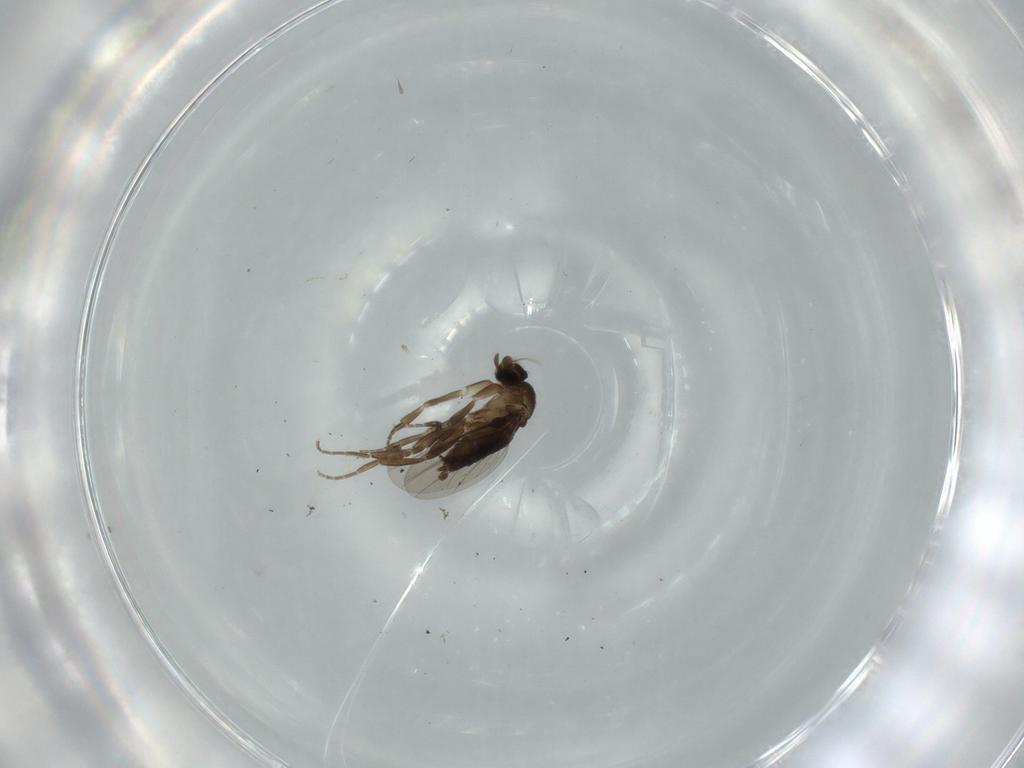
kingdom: Animalia
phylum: Arthropoda
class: Insecta
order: Diptera
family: Phoridae
